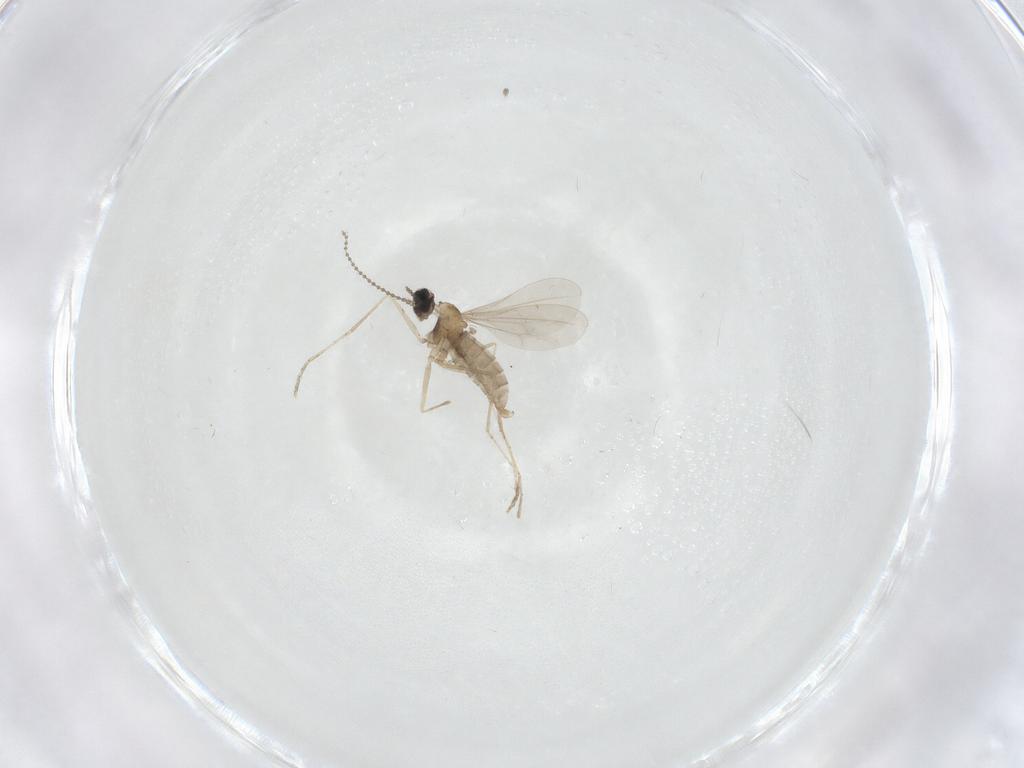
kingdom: Animalia
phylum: Arthropoda
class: Insecta
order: Diptera
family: Cecidomyiidae
